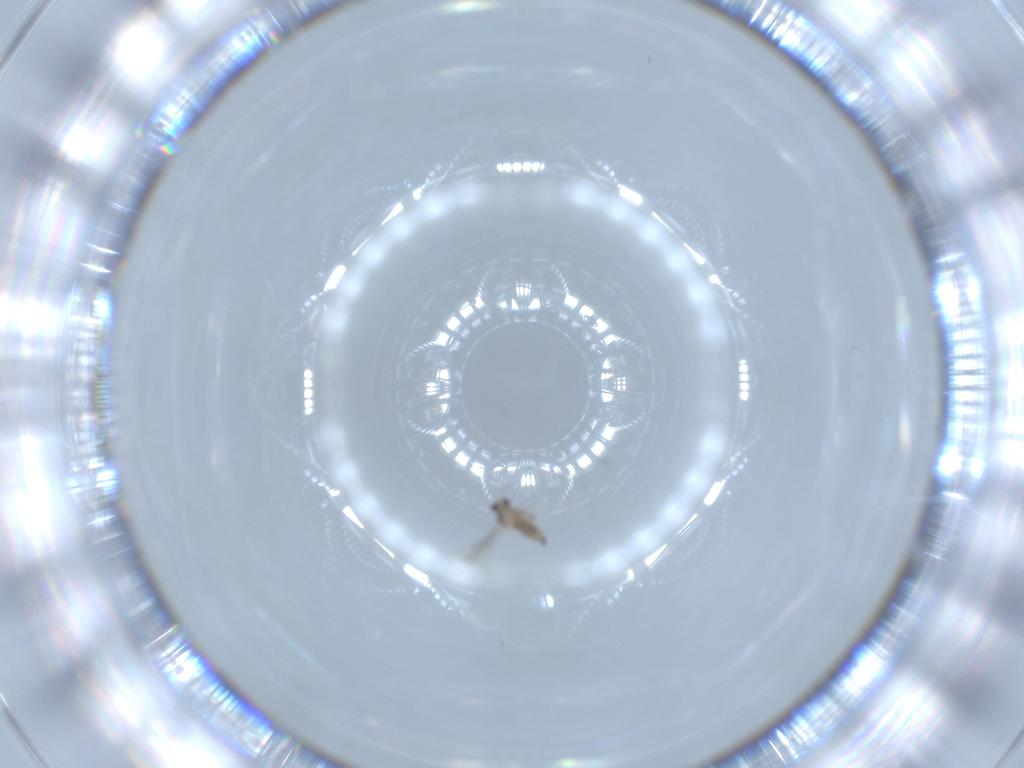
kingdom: Animalia
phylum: Arthropoda
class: Insecta
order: Diptera
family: Cecidomyiidae
